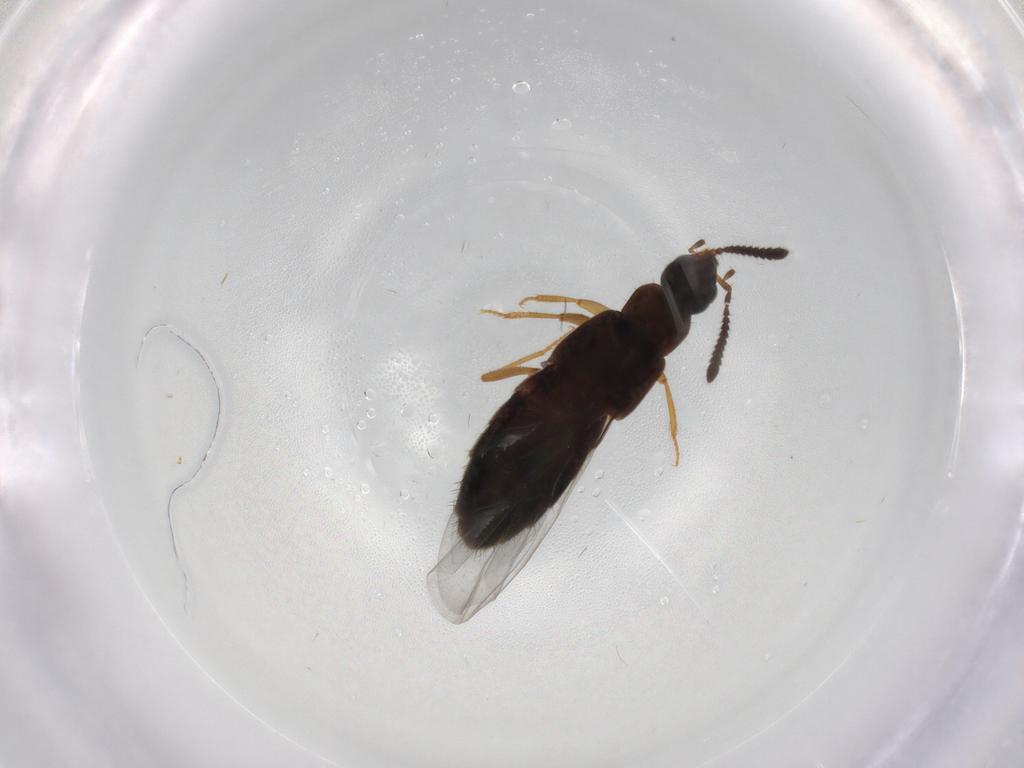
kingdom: Animalia
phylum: Arthropoda
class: Insecta
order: Coleoptera
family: Staphylinidae
